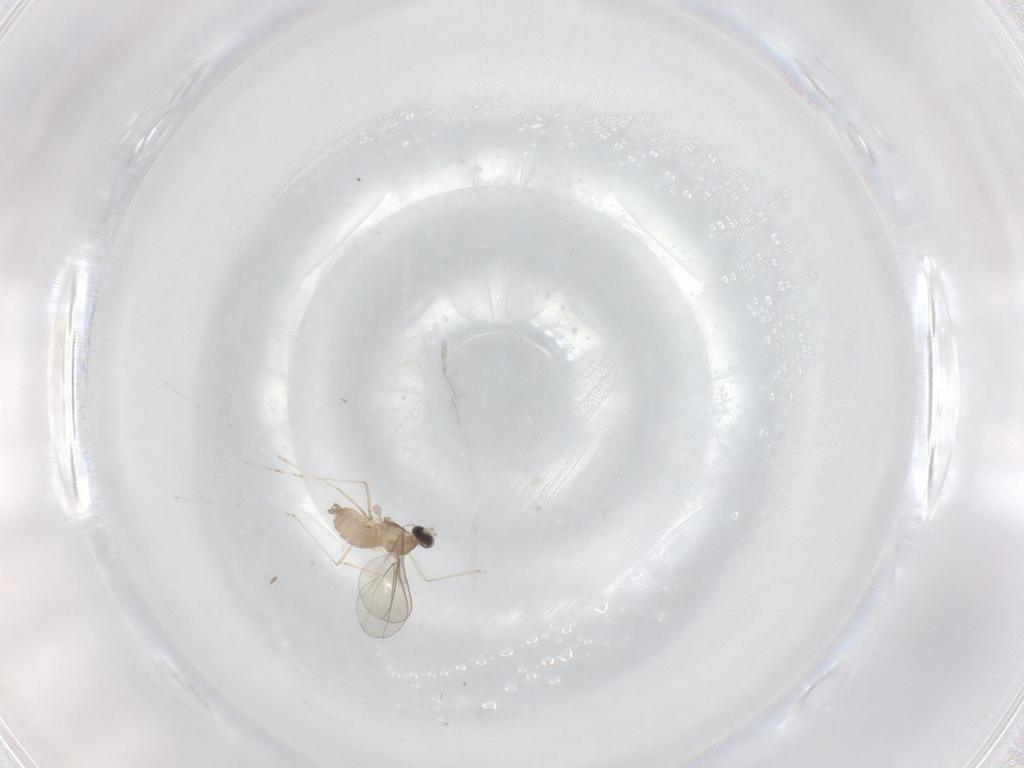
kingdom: Animalia
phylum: Arthropoda
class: Insecta
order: Diptera
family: Cecidomyiidae
